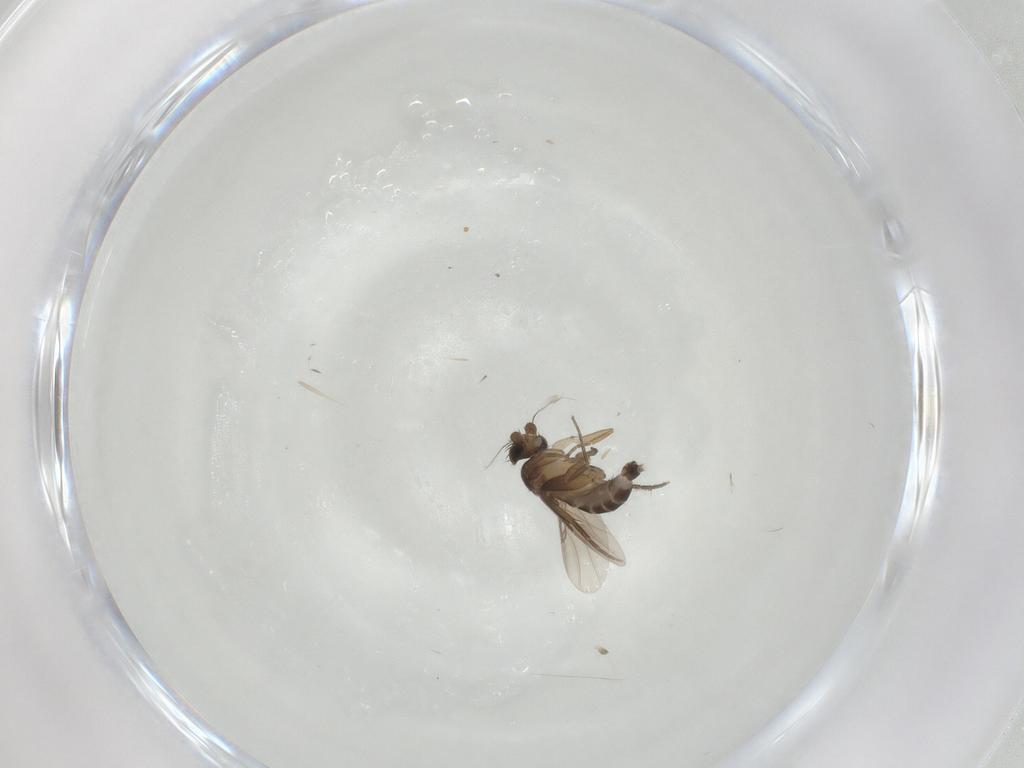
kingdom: Animalia
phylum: Arthropoda
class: Insecta
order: Diptera
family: Phoridae
